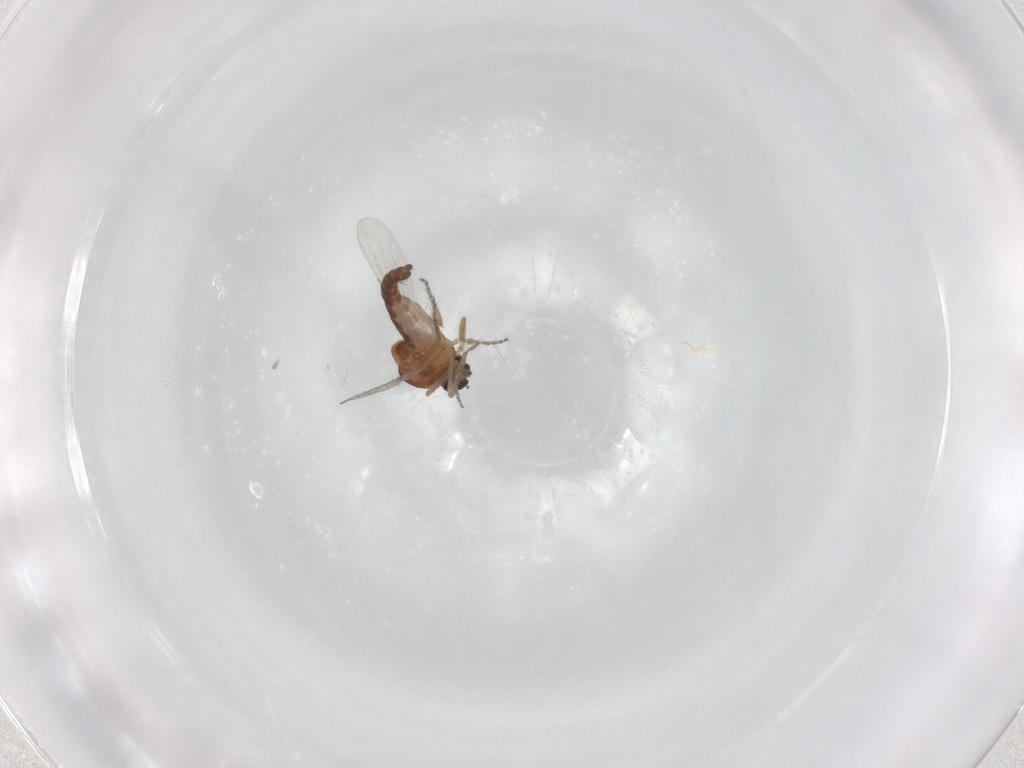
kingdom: Animalia
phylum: Arthropoda
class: Insecta
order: Diptera
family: Ceratopogonidae
